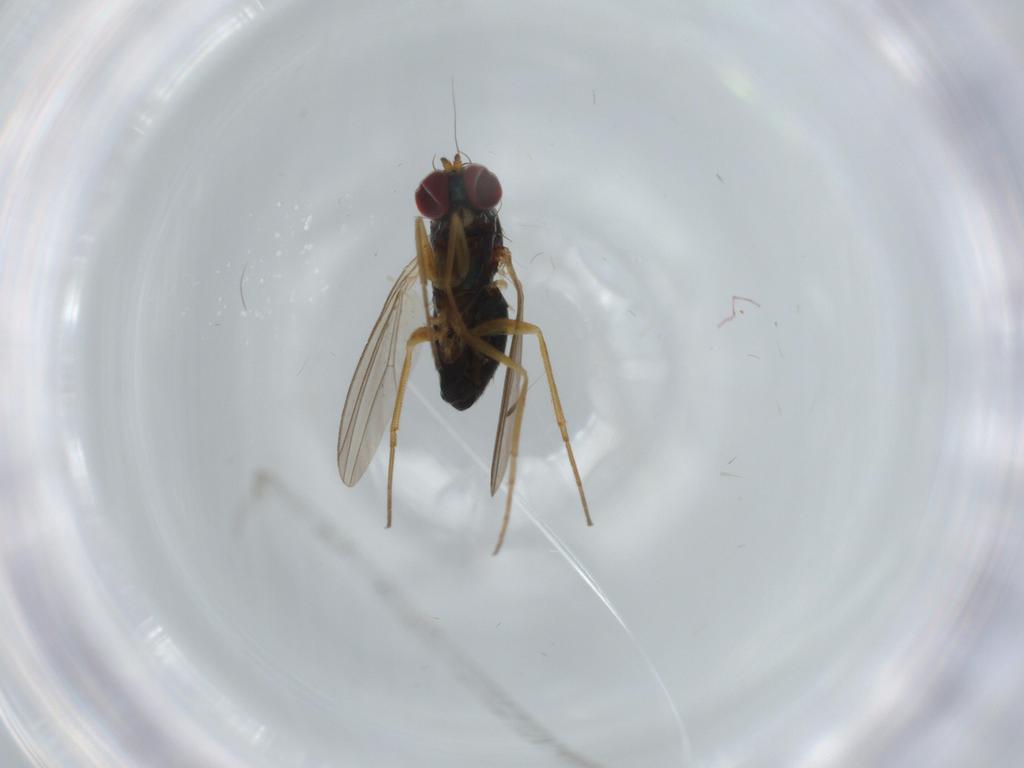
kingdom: Animalia
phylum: Arthropoda
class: Insecta
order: Diptera
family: Dolichopodidae
